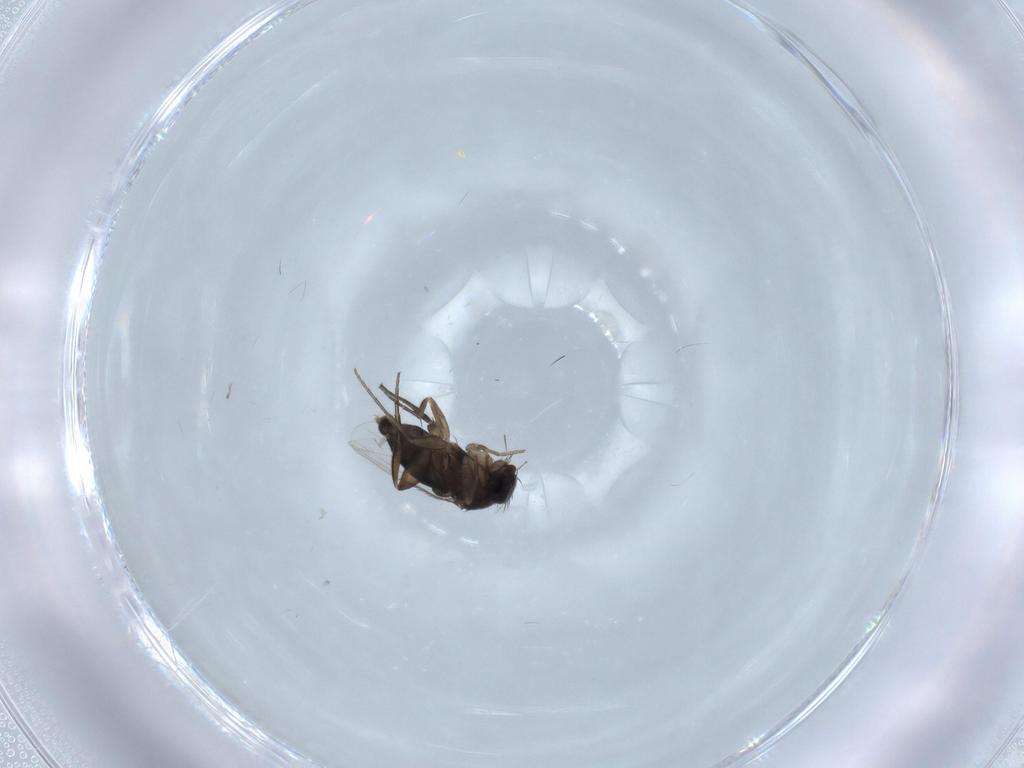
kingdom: Animalia
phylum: Arthropoda
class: Insecta
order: Diptera
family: Phoridae
